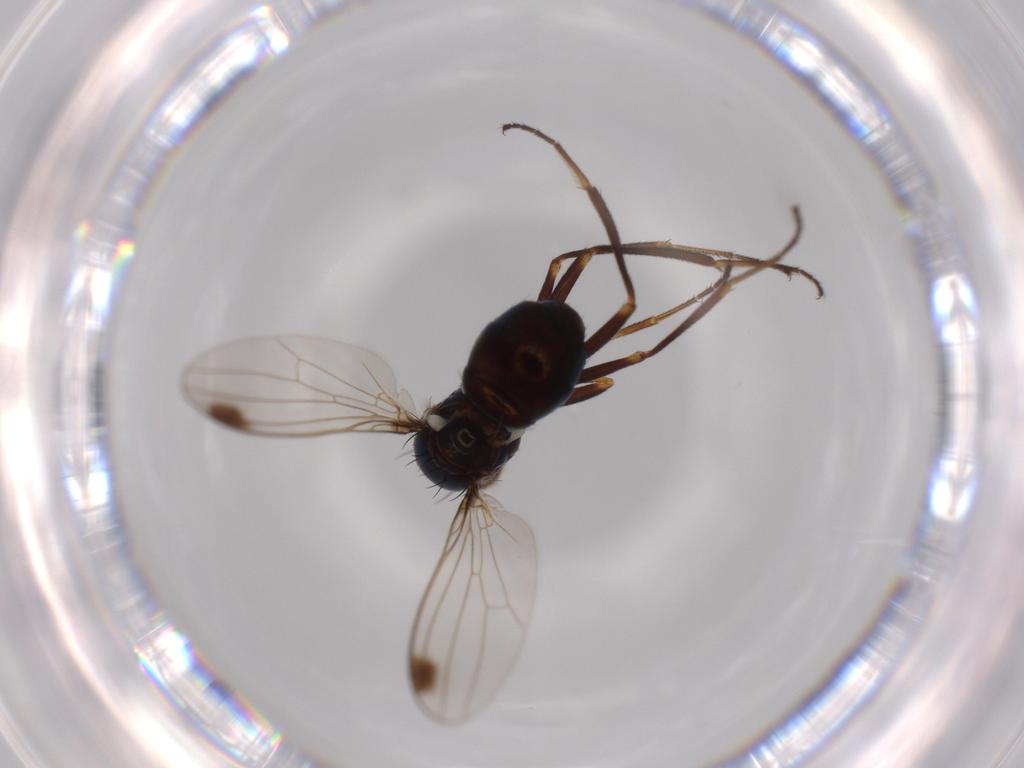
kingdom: Animalia
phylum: Arthropoda
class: Insecta
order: Diptera
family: Sepsidae
